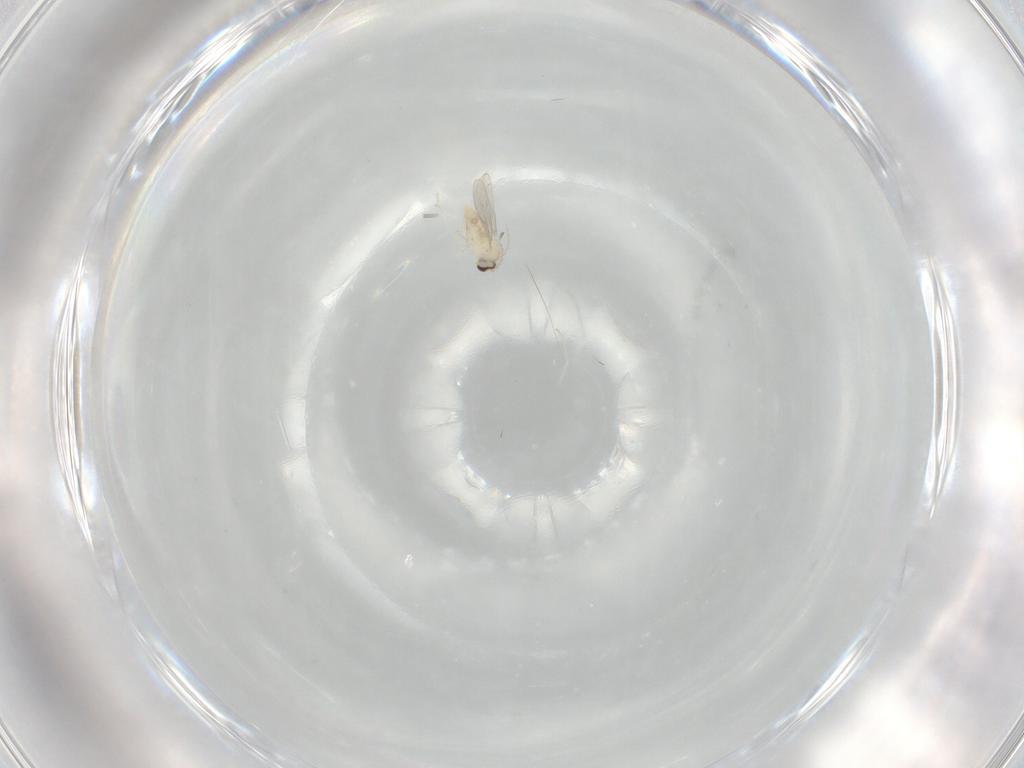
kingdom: Animalia
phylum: Arthropoda
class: Insecta
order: Diptera
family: Cecidomyiidae
